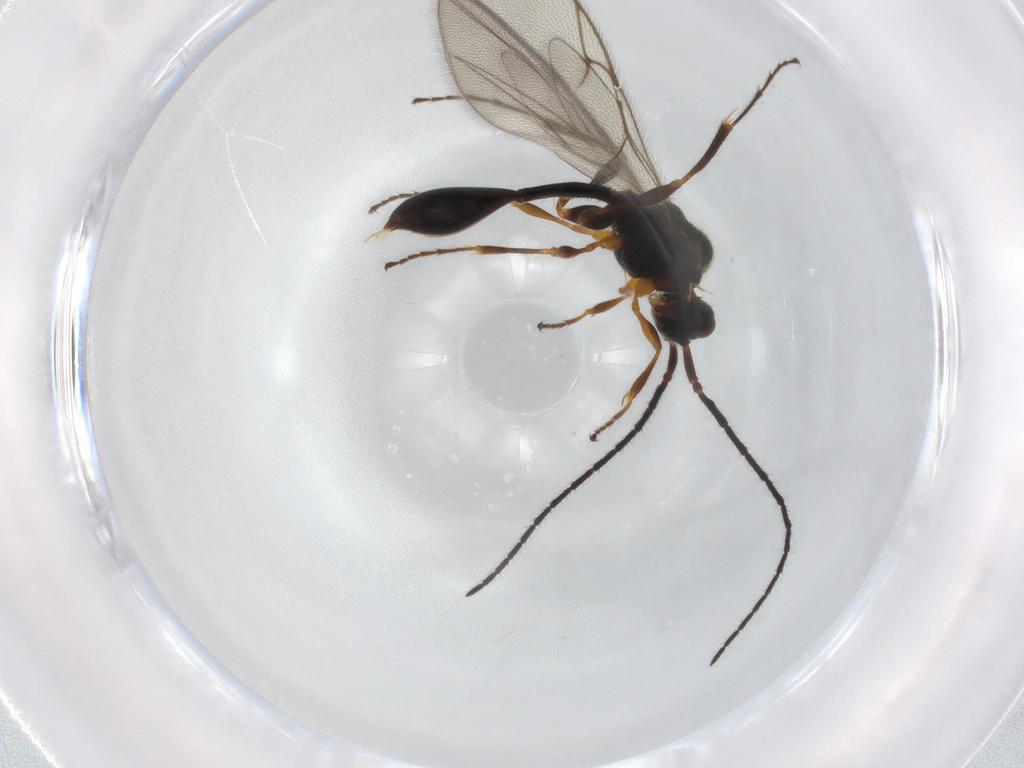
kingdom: Animalia
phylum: Arthropoda
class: Insecta
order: Hymenoptera
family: Diapriidae
